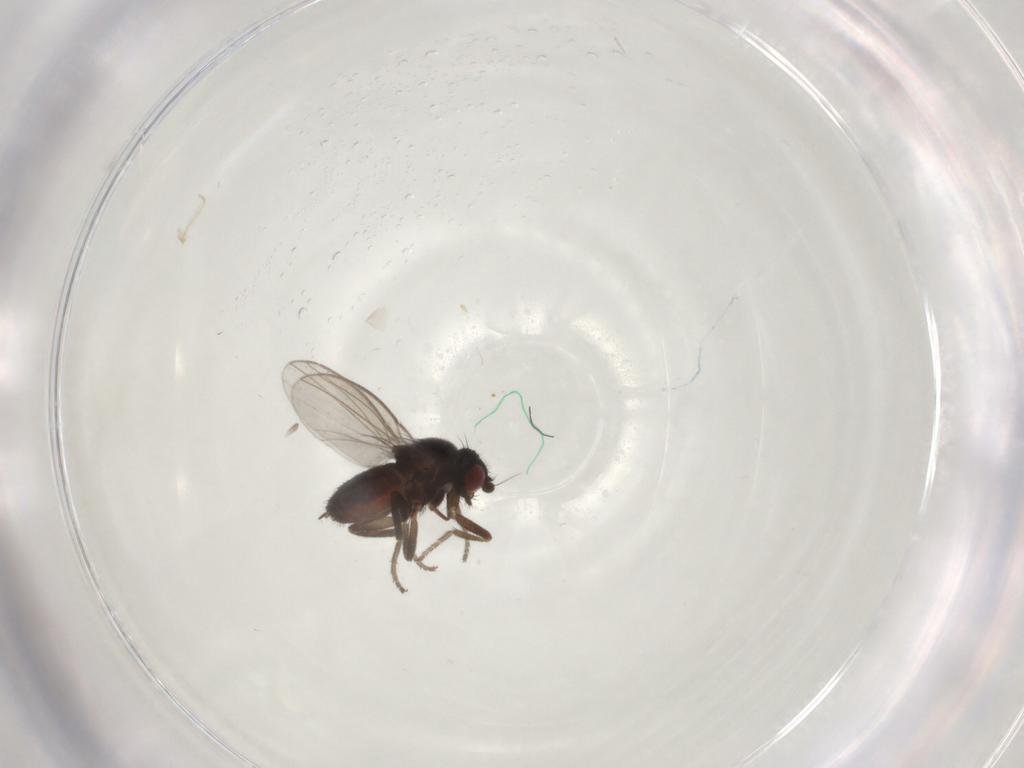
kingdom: Animalia
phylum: Arthropoda
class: Insecta
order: Diptera
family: Milichiidae
